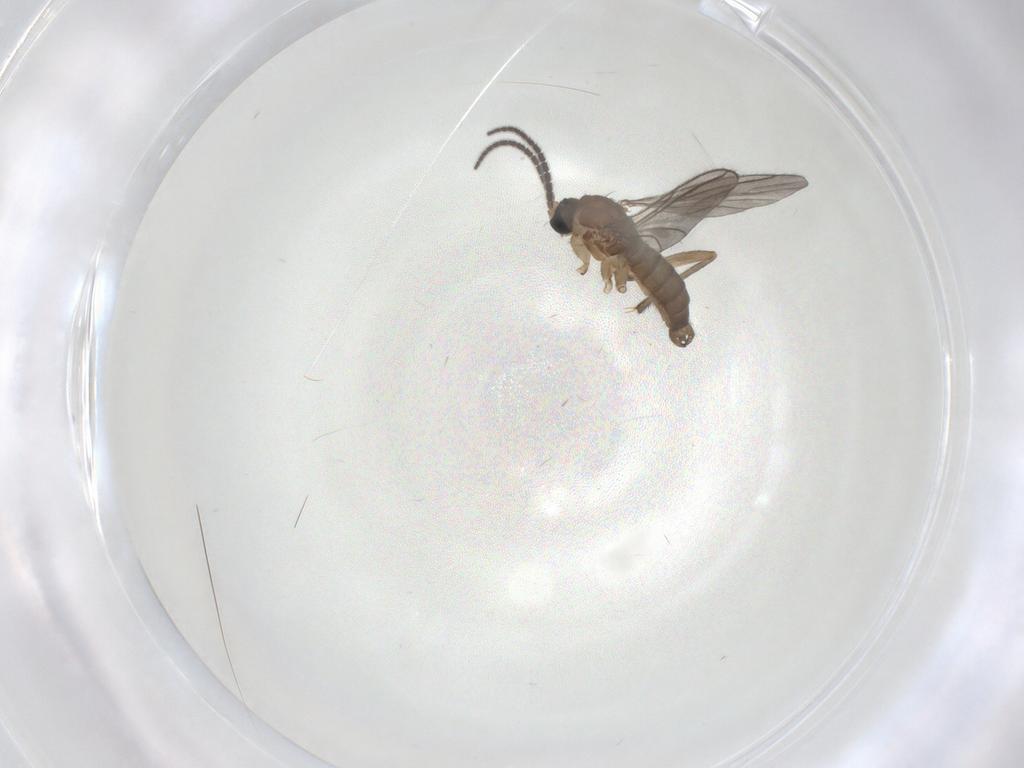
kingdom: Animalia
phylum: Arthropoda
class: Insecta
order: Diptera
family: Sciaridae
